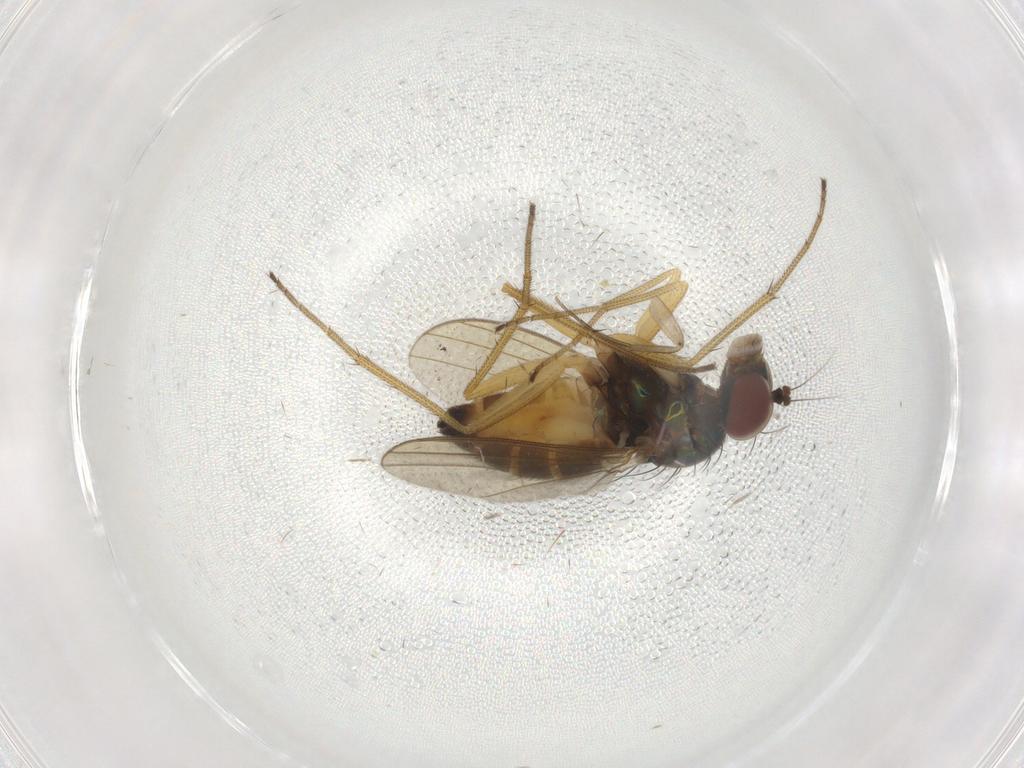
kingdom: Animalia
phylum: Arthropoda
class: Insecta
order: Diptera
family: Dolichopodidae
